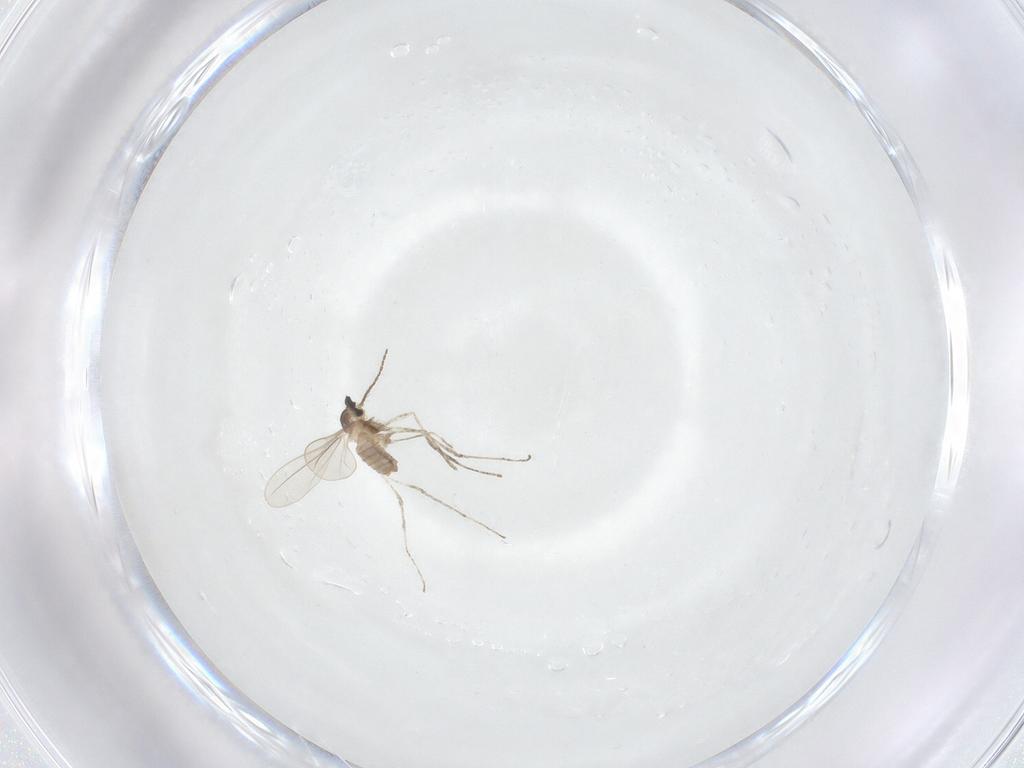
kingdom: Animalia
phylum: Arthropoda
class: Insecta
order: Diptera
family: Cecidomyiidae
